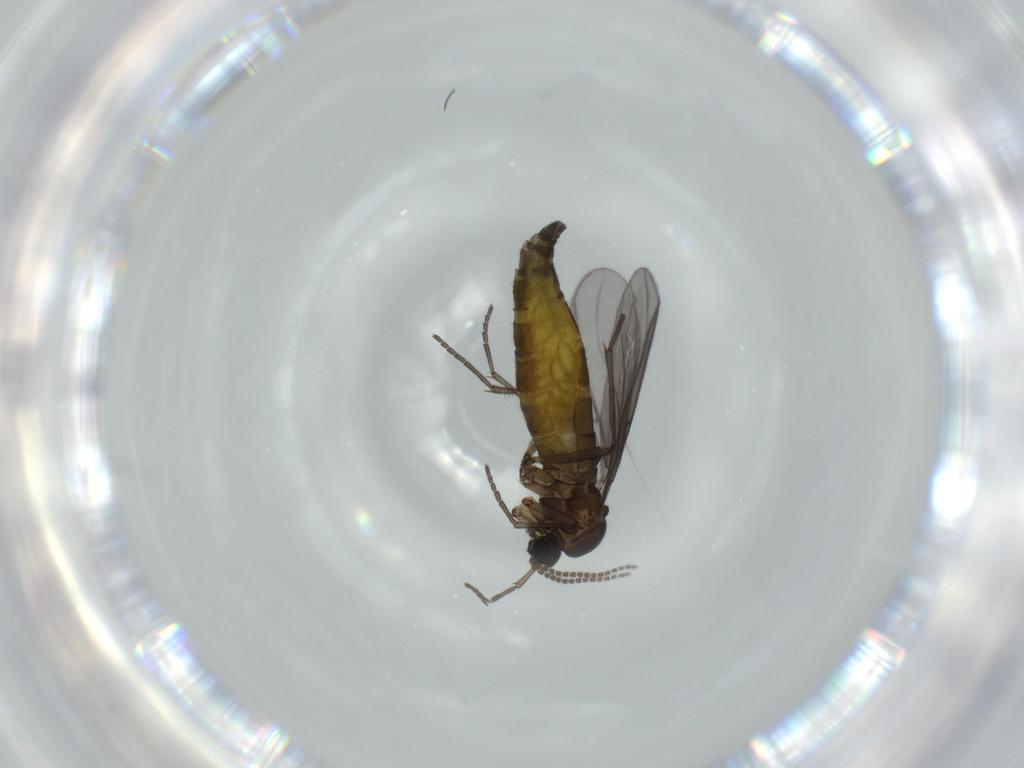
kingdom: Animalia
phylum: Arthropoda
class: Insecta
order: Diptera
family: Sciaridae
